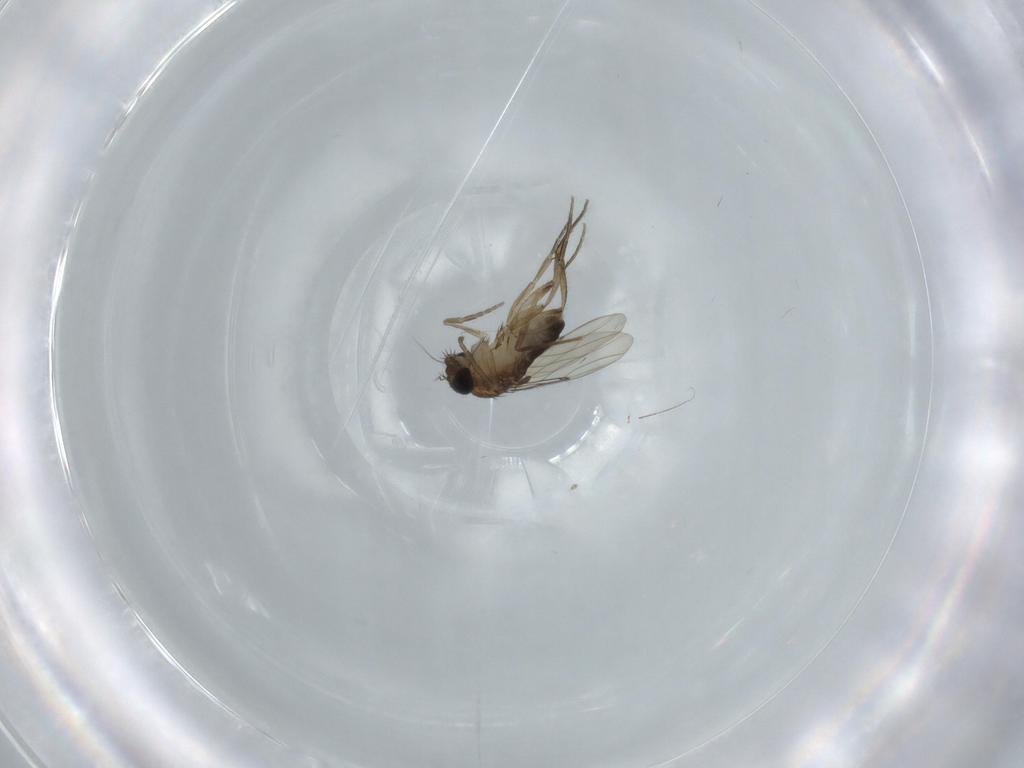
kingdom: Animalia
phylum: Arthropoda
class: Insecta
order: Diptera
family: Phoridae
